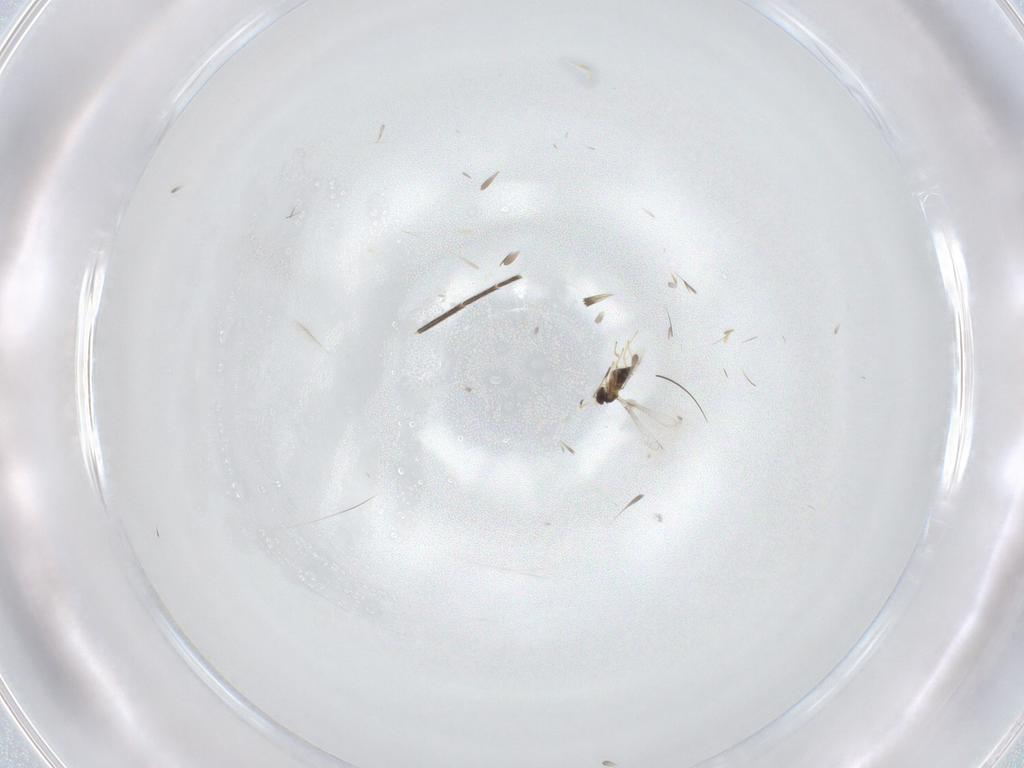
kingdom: Animalia
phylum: Arthropoda
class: Insecta
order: Hymenoptera
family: Mymaridae
